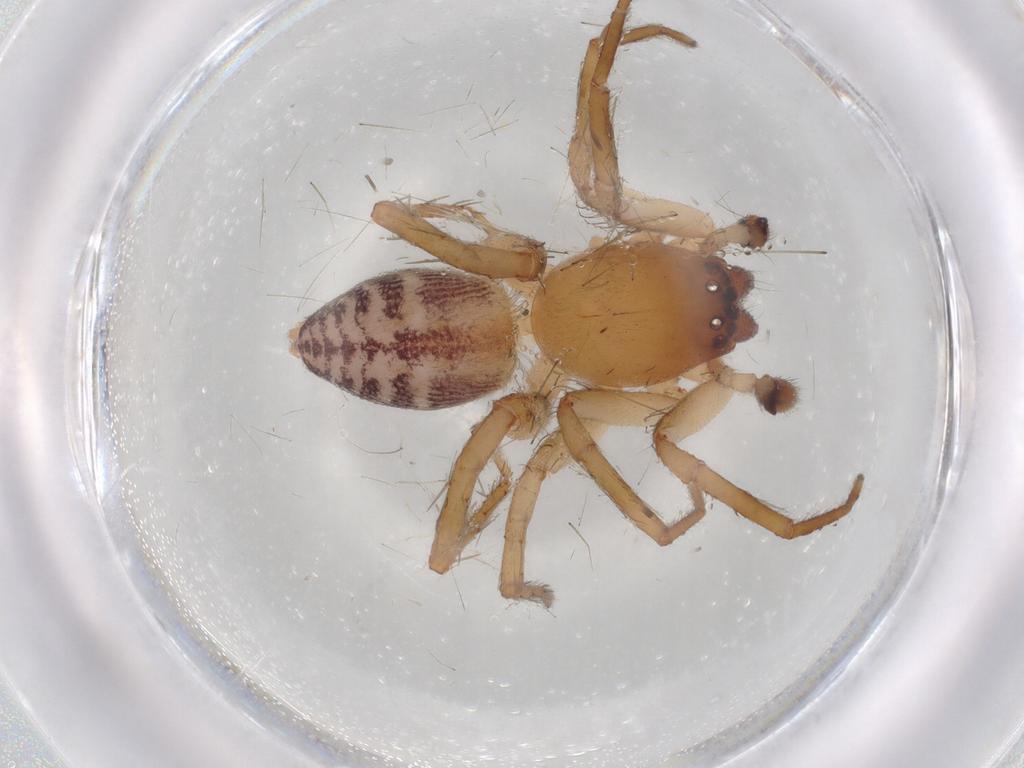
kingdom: Animalia
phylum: Arthropoda
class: Arachnida
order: Araneae
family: Clubionidae
